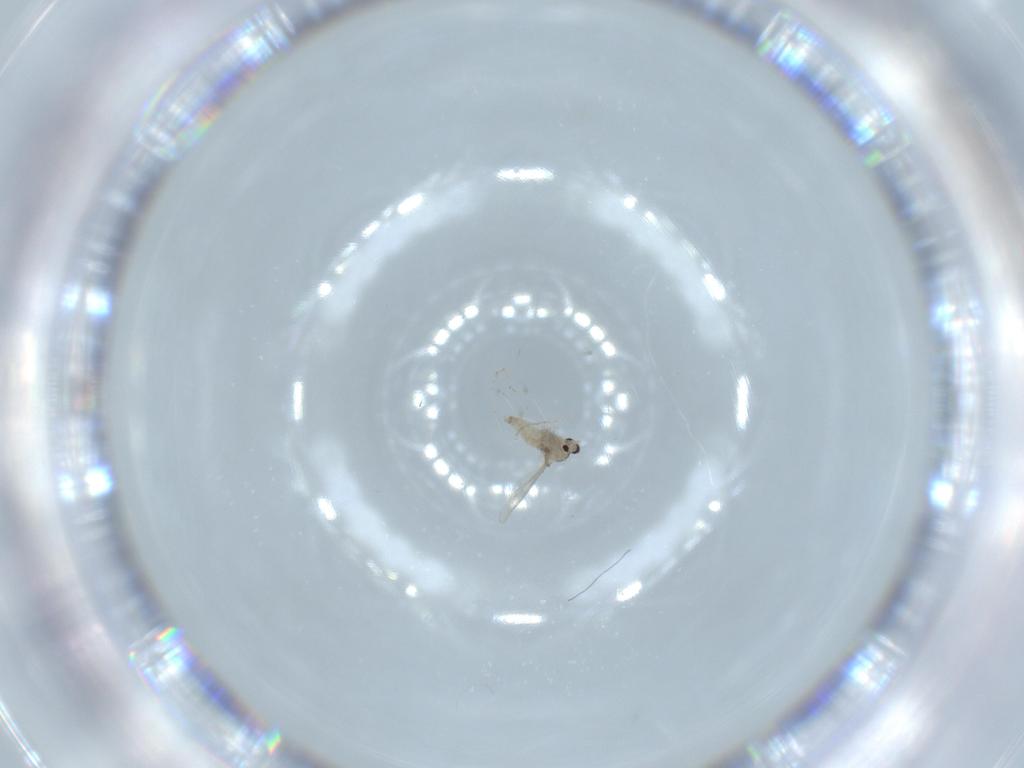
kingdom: Animalia
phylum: Arthropoda
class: Insecta
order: Diptera
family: Cecidomyiidae
